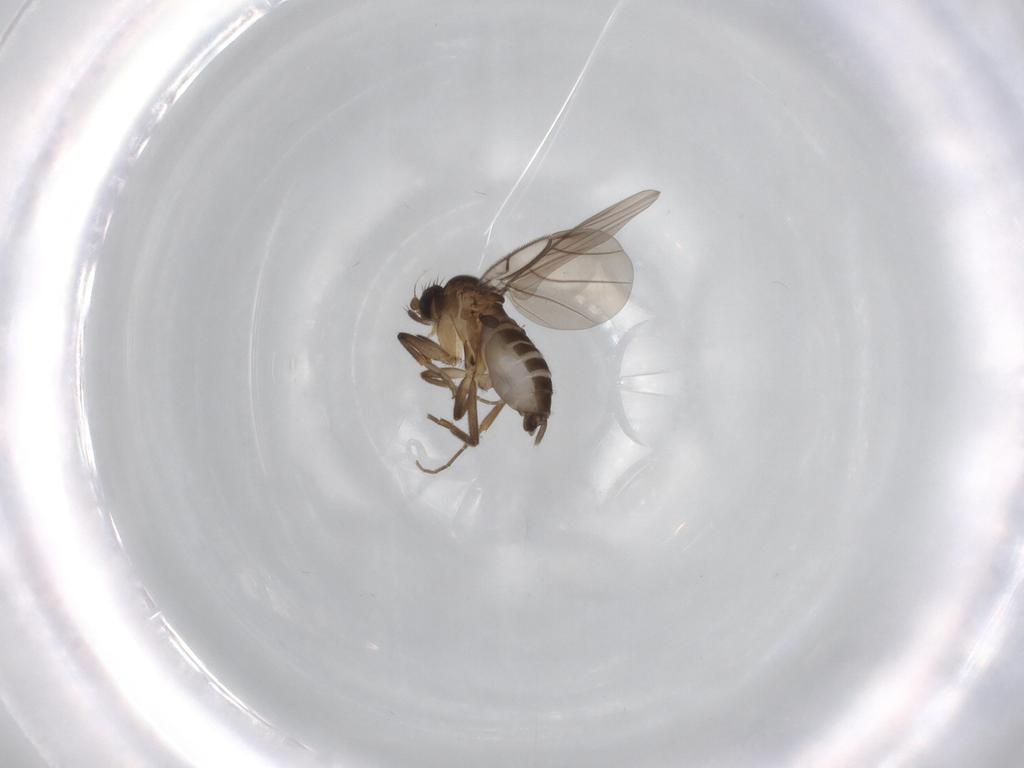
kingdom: Animalia
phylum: Arthropoda
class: Insecta
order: Diptera
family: Phoridae
